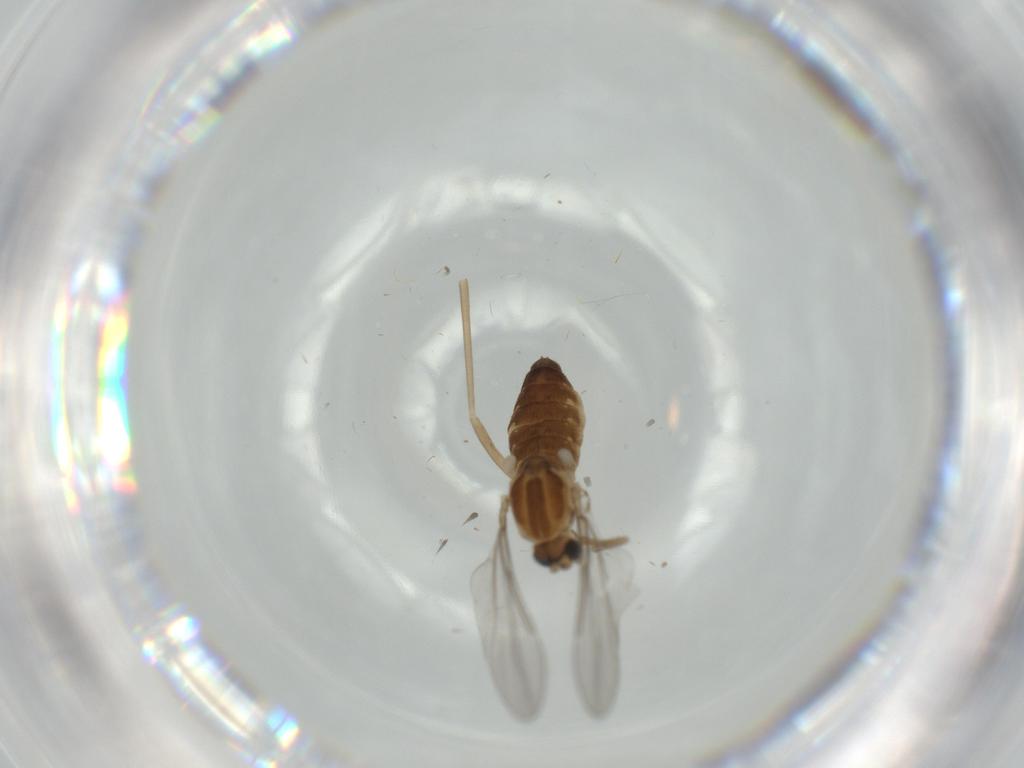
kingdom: Animalia
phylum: Arthropoda
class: Insecta
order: Diptera
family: Cecidomyiidae
